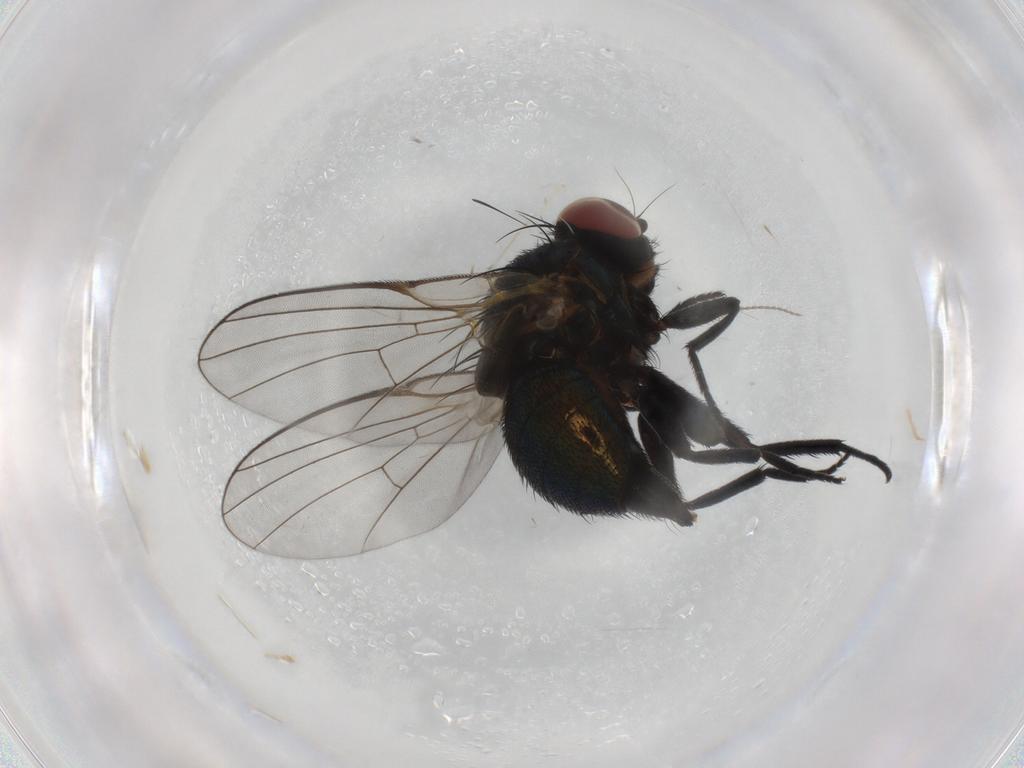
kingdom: Animalia
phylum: Arthropoda
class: Insecta
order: Diptera
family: Agromyzidae
